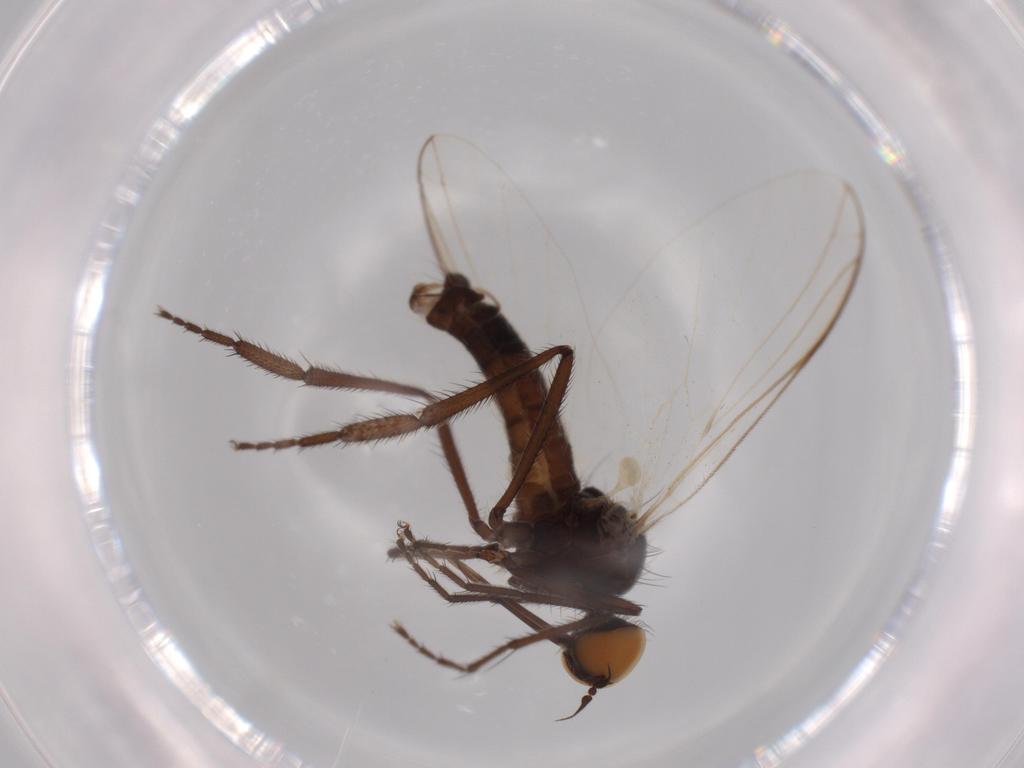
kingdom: Animalia
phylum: Arthropoda
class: Insecta
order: Diptera
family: Empididae
